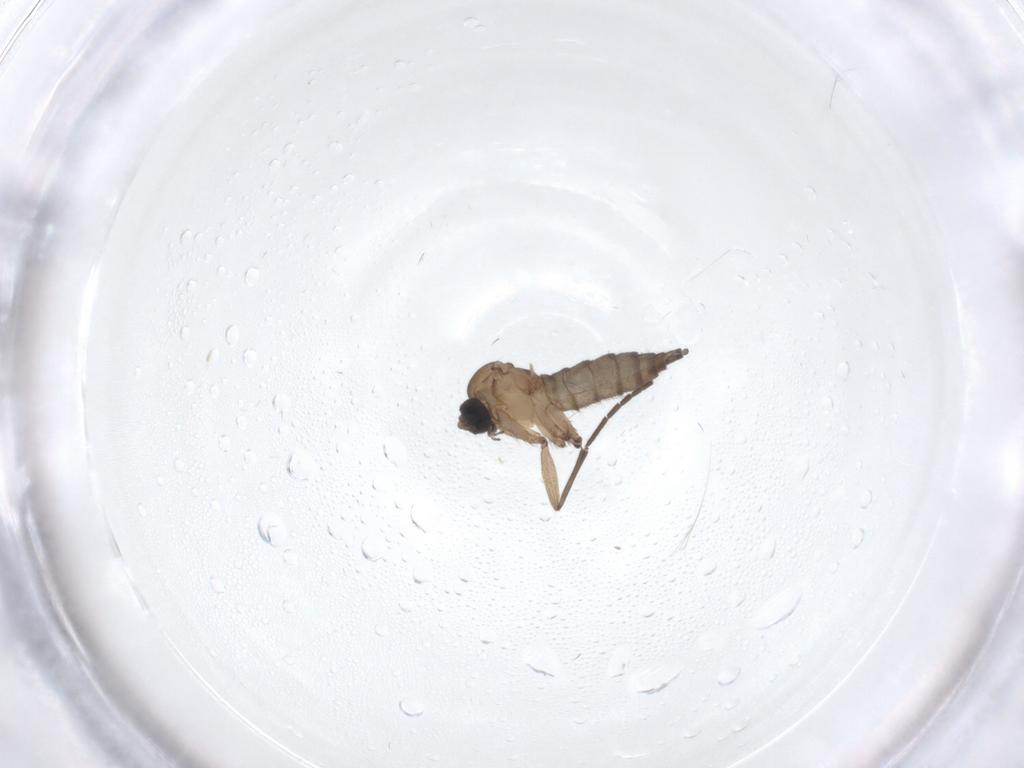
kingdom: Animalia
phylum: Arthropoda
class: Insecta
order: Diptera
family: Sciaridae
